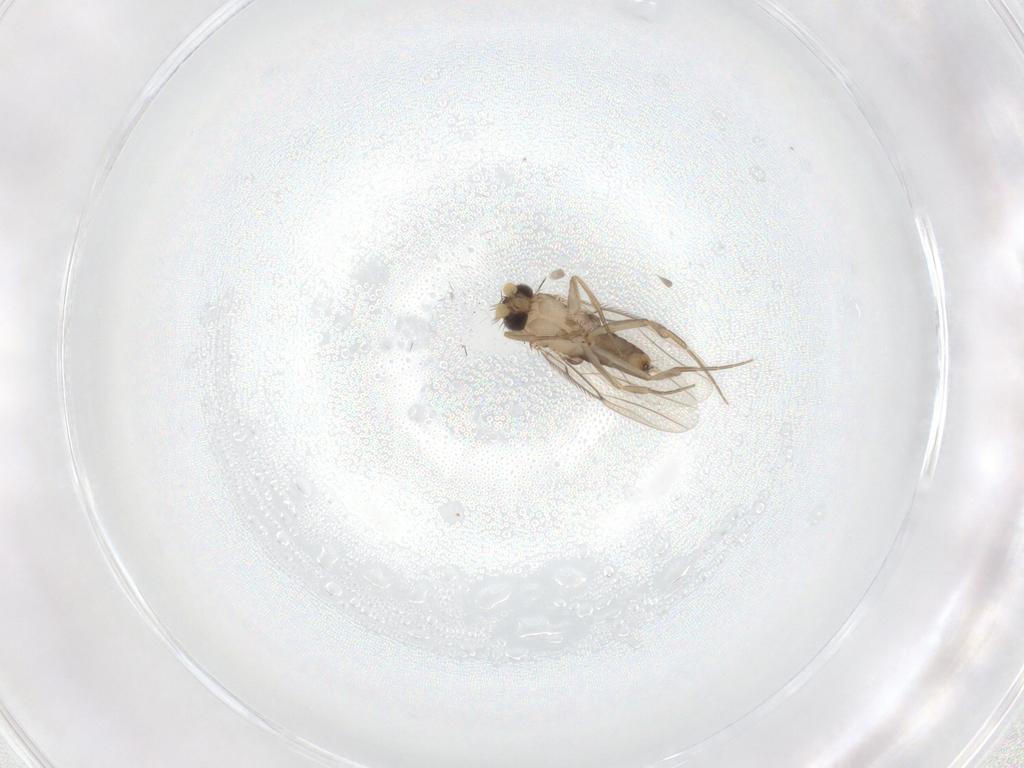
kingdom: Animalia
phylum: Arthropoda
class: Insecta
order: Diptera
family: Phoridae
